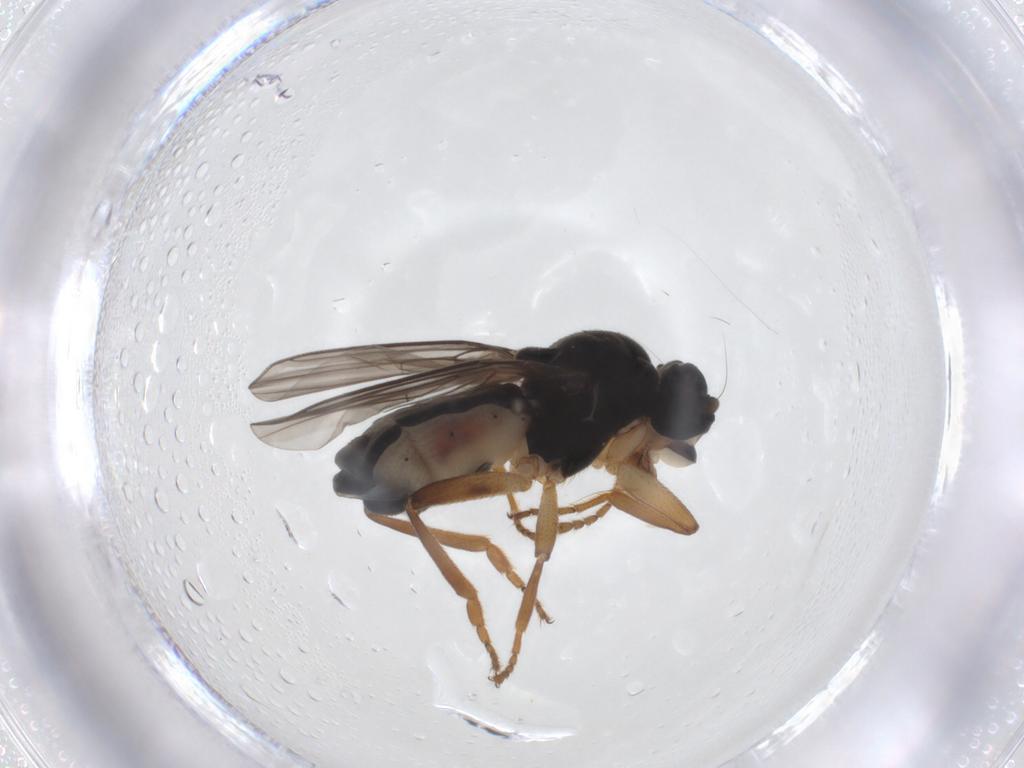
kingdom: Animalia
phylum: Arthropoda
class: Insecta
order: Diptera
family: Sphaeroceridae
